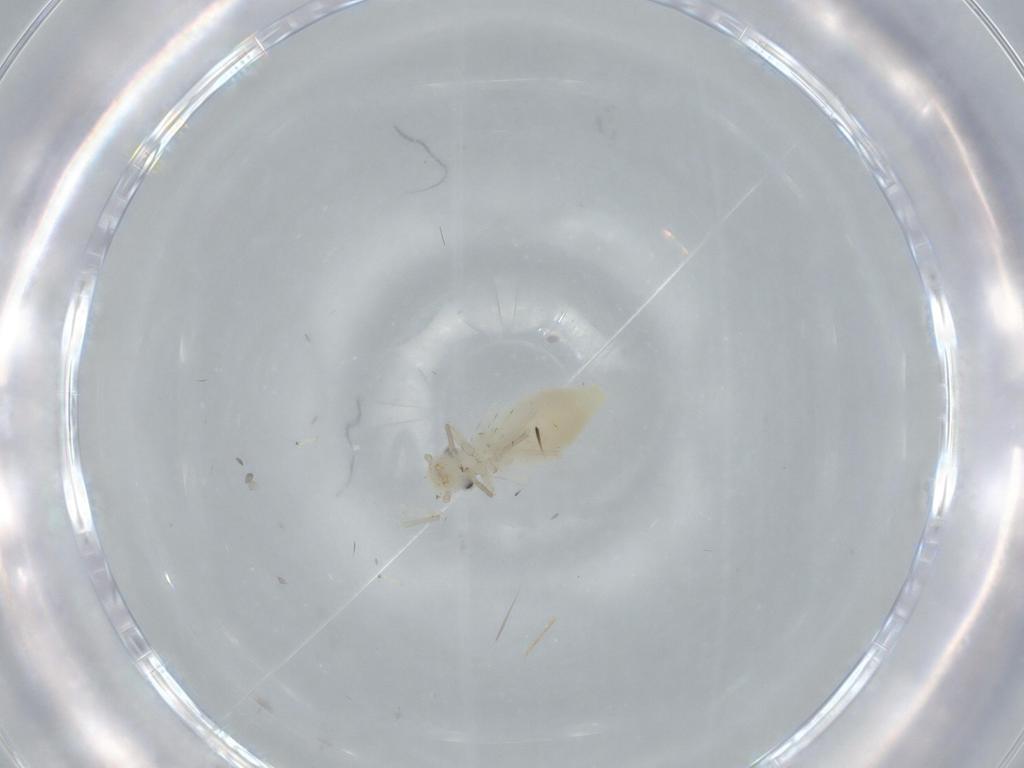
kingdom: Animalia
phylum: Arthropoda
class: Insecta
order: Psocodea
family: Caeciliusidae
